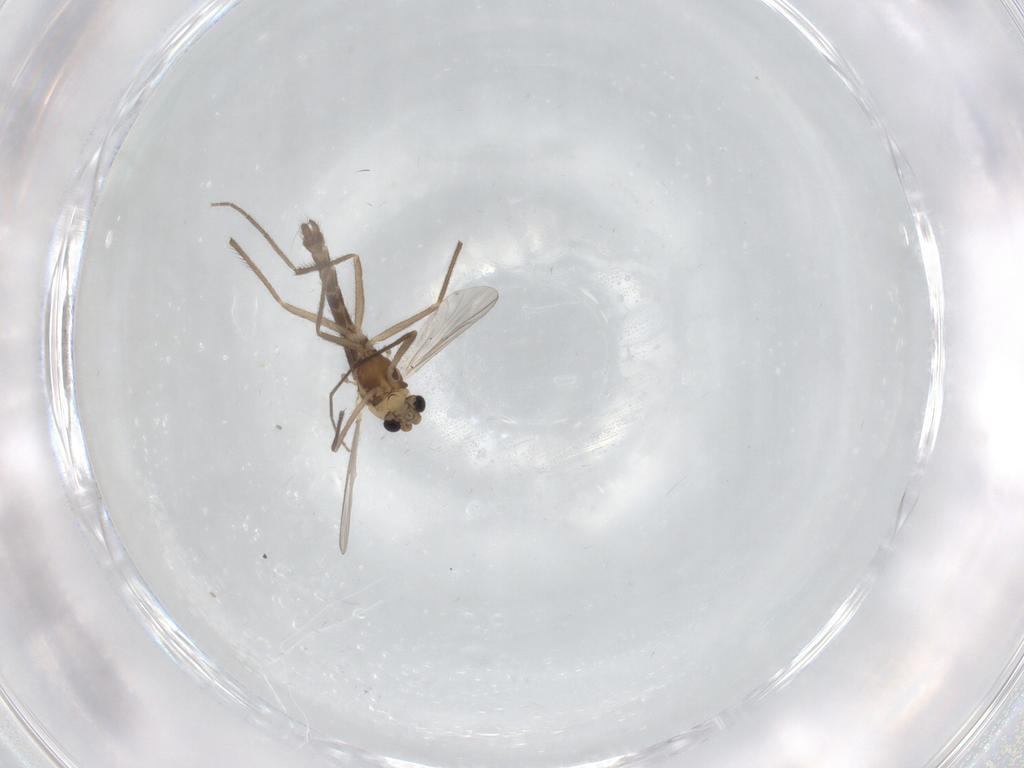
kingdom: Animalia
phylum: Arthropoda
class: Insecta
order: Diptera
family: Chironomidae
